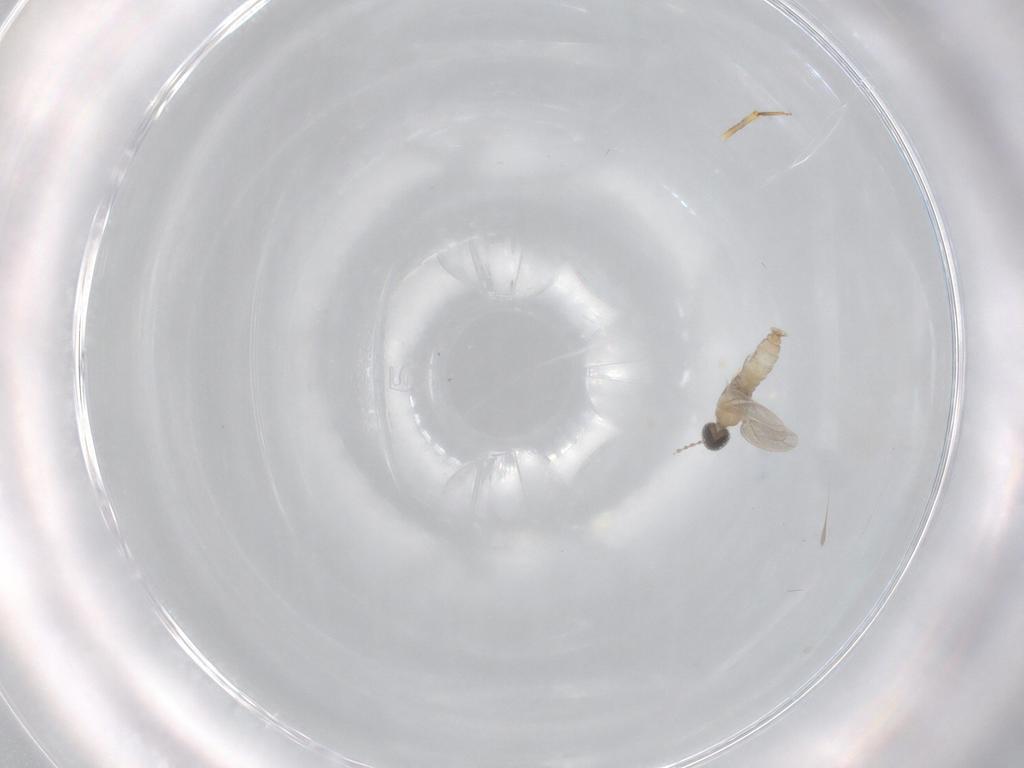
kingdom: Animalia
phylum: Arthropoda
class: Insecta
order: Diptera
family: Cecidomyiidae
